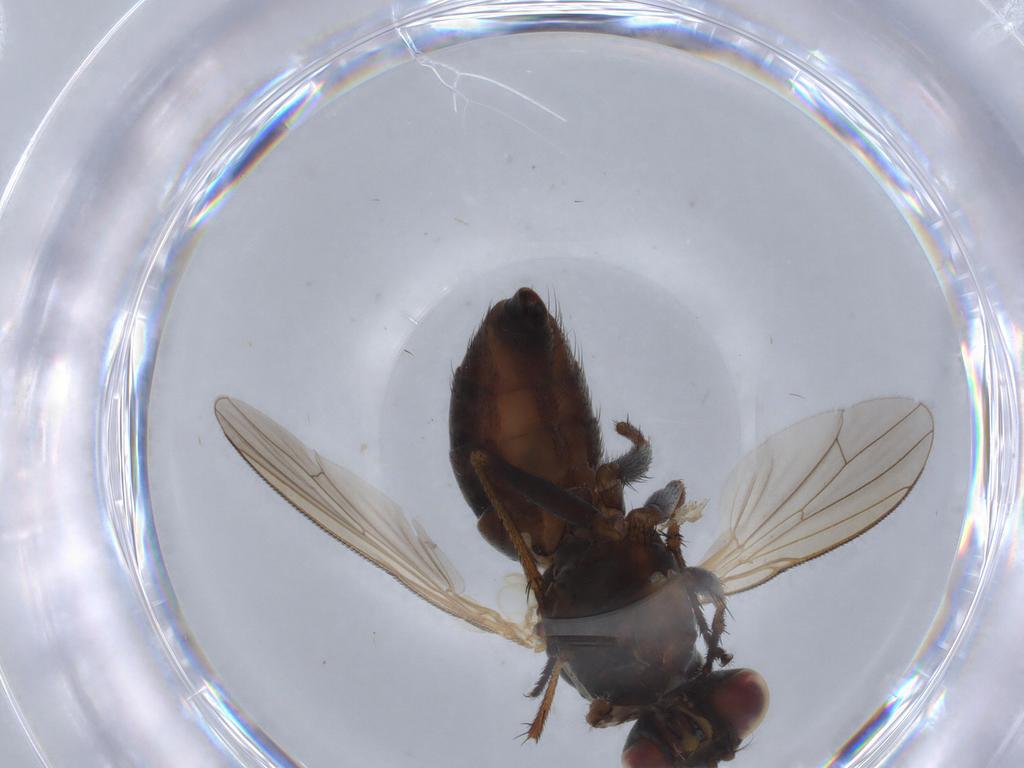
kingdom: Animalia
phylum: Arthropoda
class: Insecta
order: Diptera
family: Muscidae
